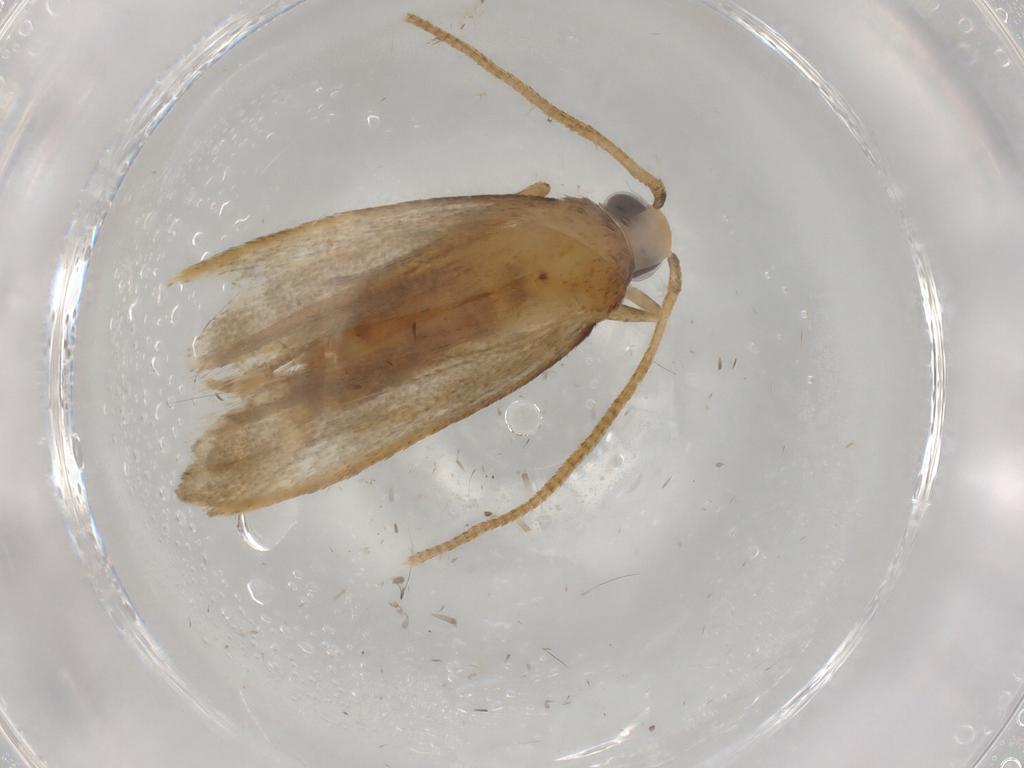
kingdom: Animalia
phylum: Arthropoda
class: Insecta
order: Lepidoptera
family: Autostichidae
